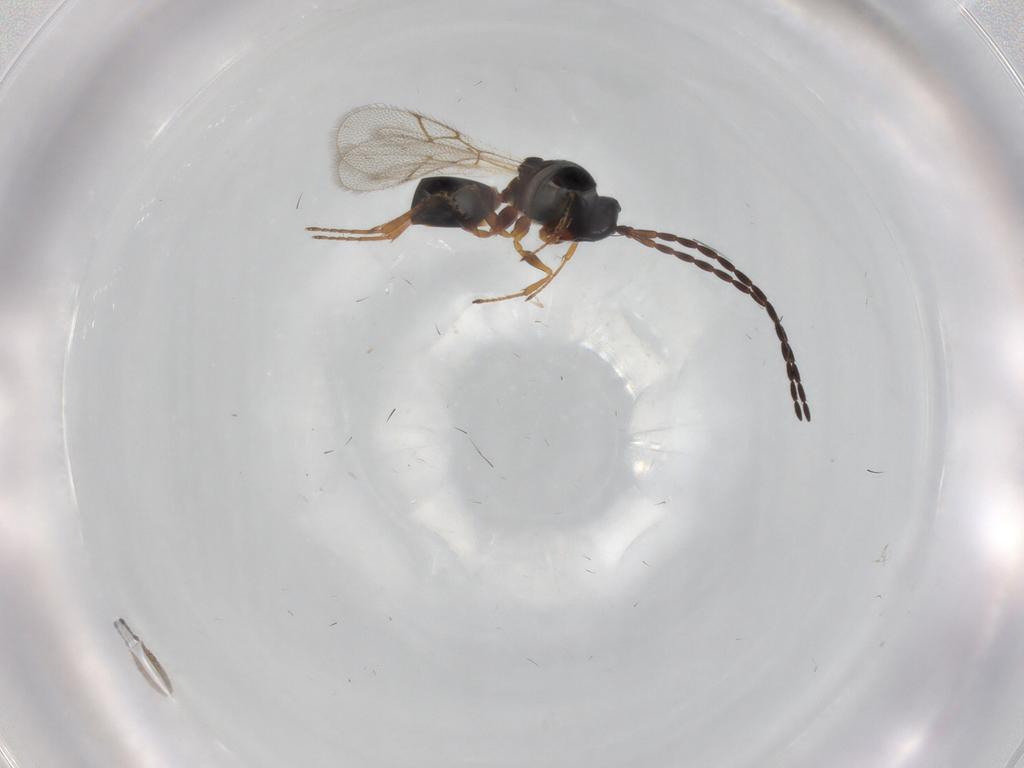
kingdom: Animalia
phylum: Arthropoda
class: Insecta
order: Hymenoptera
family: Figitidae
